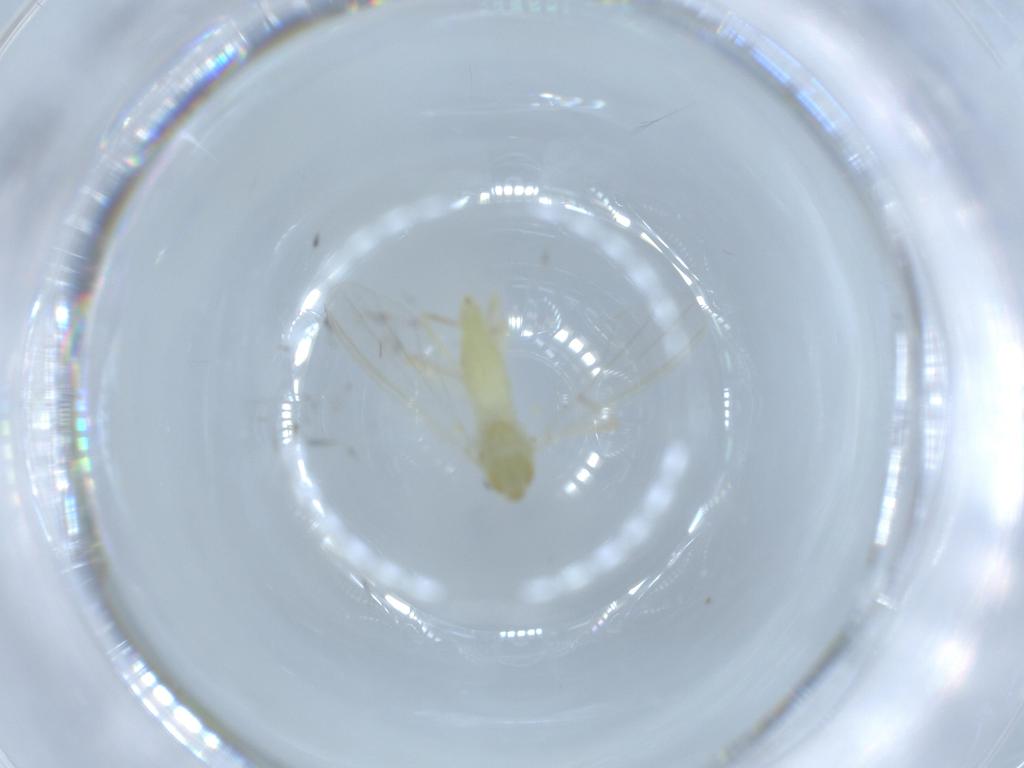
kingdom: Animalia
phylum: Arthropoda
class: Insecta
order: Diptera
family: Chironomidae
